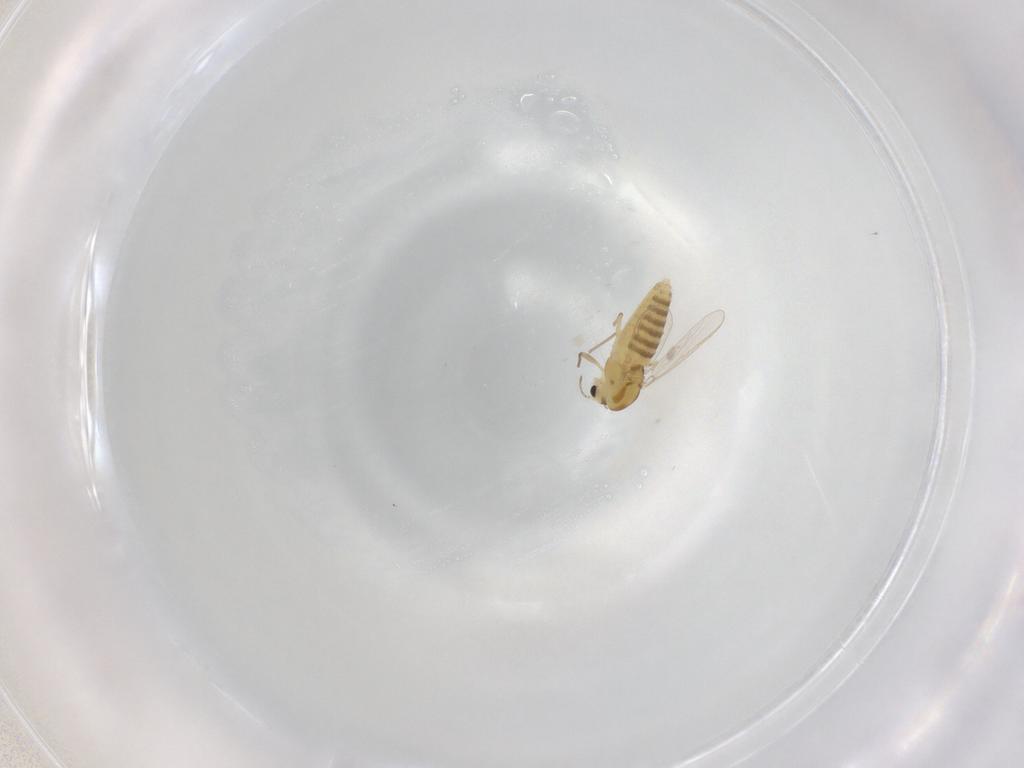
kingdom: Animalia
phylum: Arthropoda
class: Insecta
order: Diptera
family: Chironomidae
